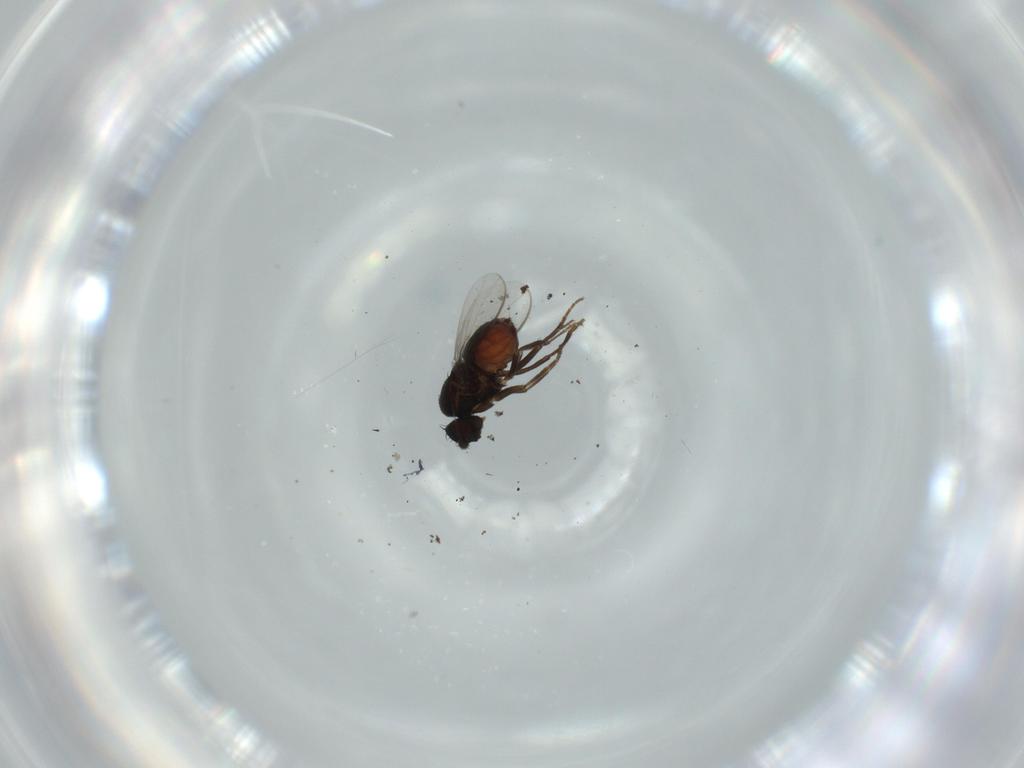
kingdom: Animalia
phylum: Arthropoda
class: Insecta
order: Diptera
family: Sphaeroceridae
